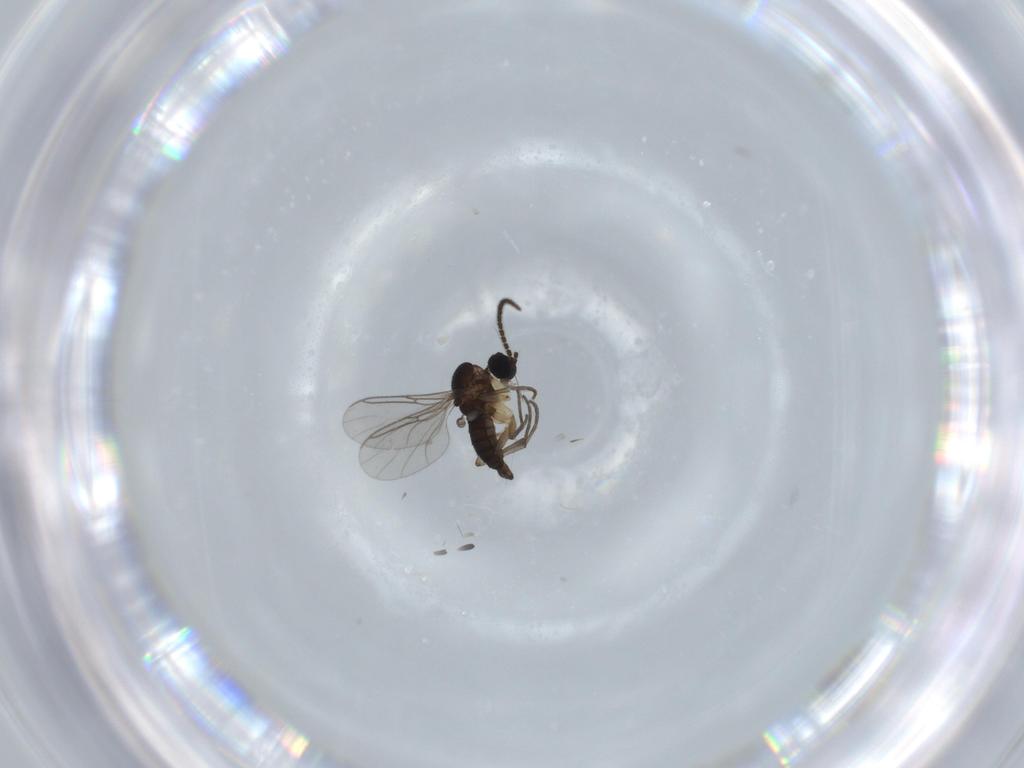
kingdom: Animalia
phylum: Arthropoda
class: Insecta
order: Diptera
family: Sciaridae
